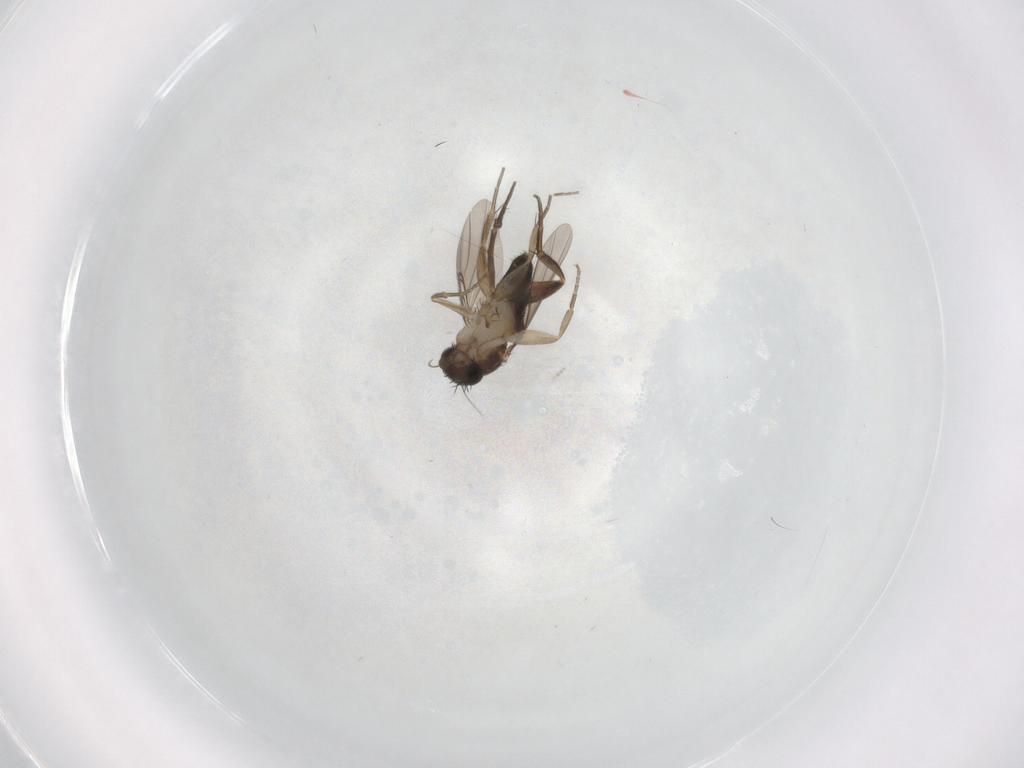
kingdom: Animalia
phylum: Arthropoda
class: Insecta
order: Diptera
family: Phoridae
